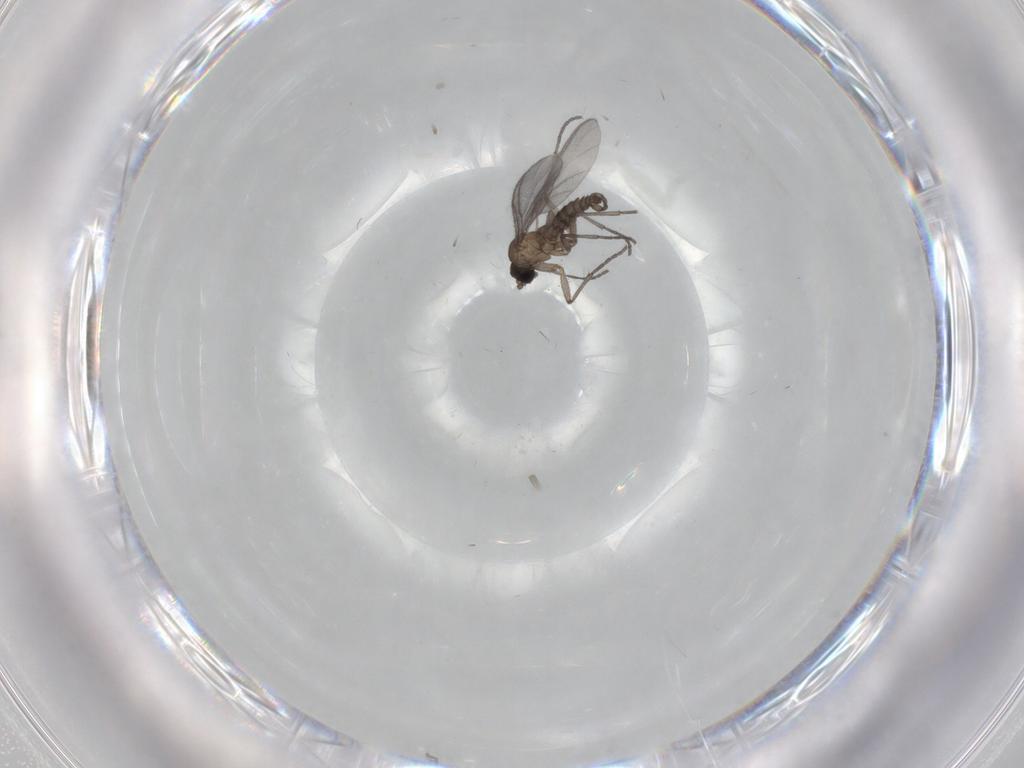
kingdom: Animalia
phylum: Arthropoda
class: Insecta
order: Diptera
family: Sciaridae
